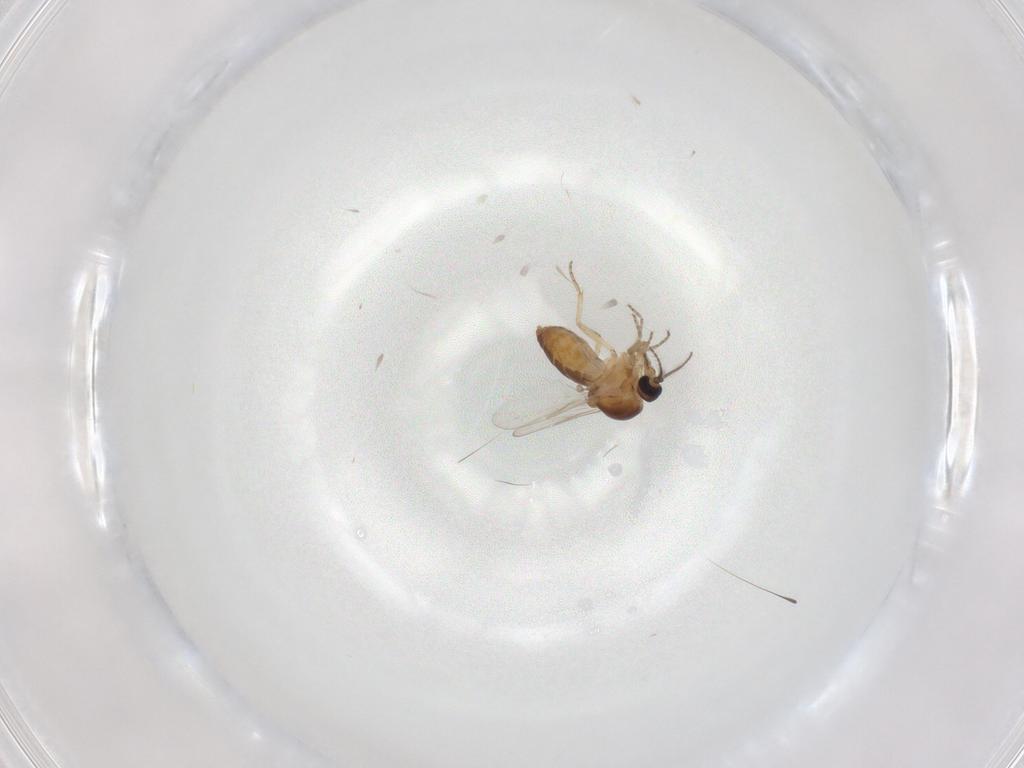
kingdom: Animalia
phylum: Arthropoda
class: Insecta
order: Diptera
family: Ceratopogonidae
